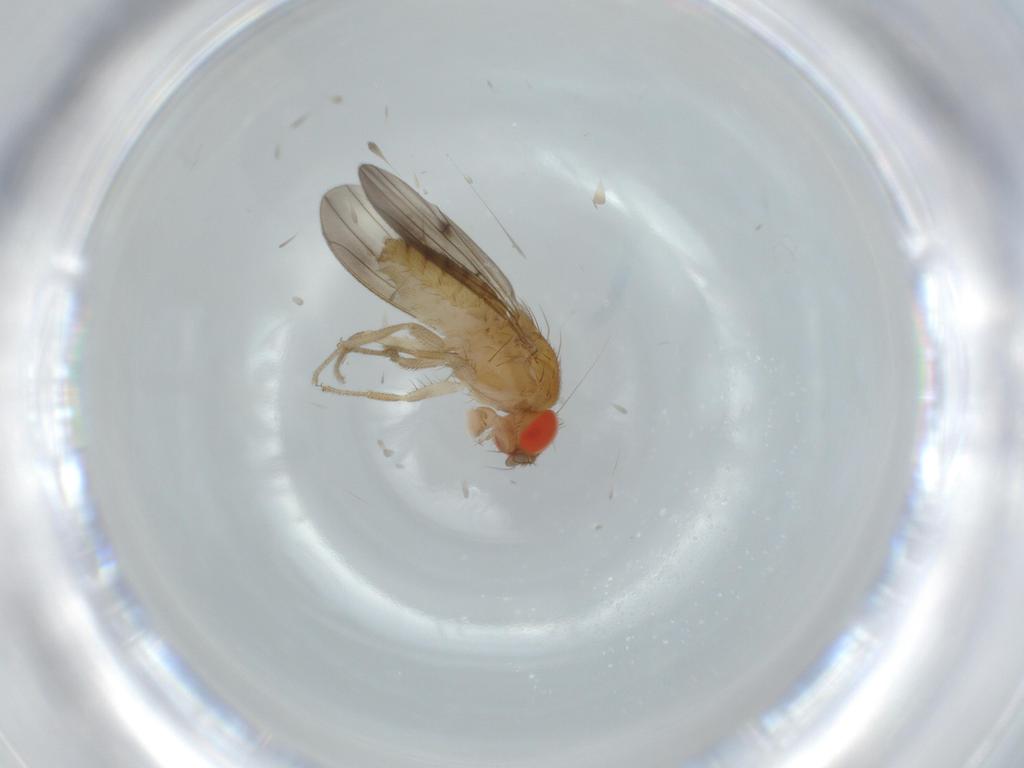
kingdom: Animalia
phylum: Arthropoda
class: Insecta
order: Diptera
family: Drosophilidae
